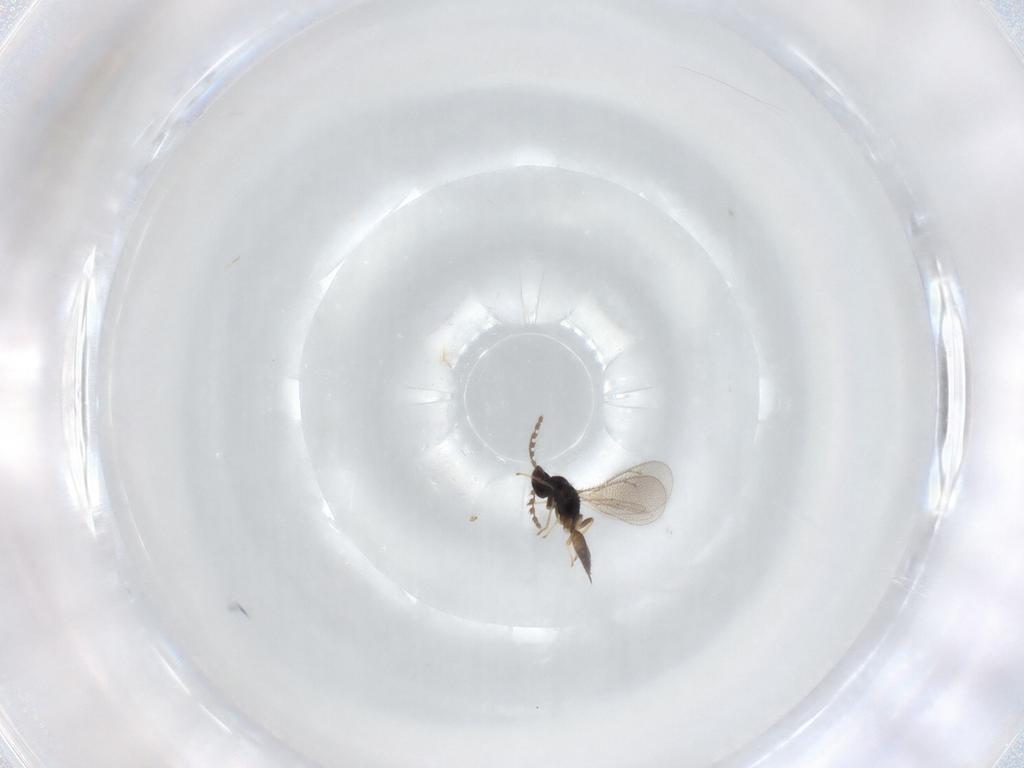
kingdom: Animalia
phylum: Arthropoda
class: Insecta
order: Hymenoptera
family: Eulophidae
